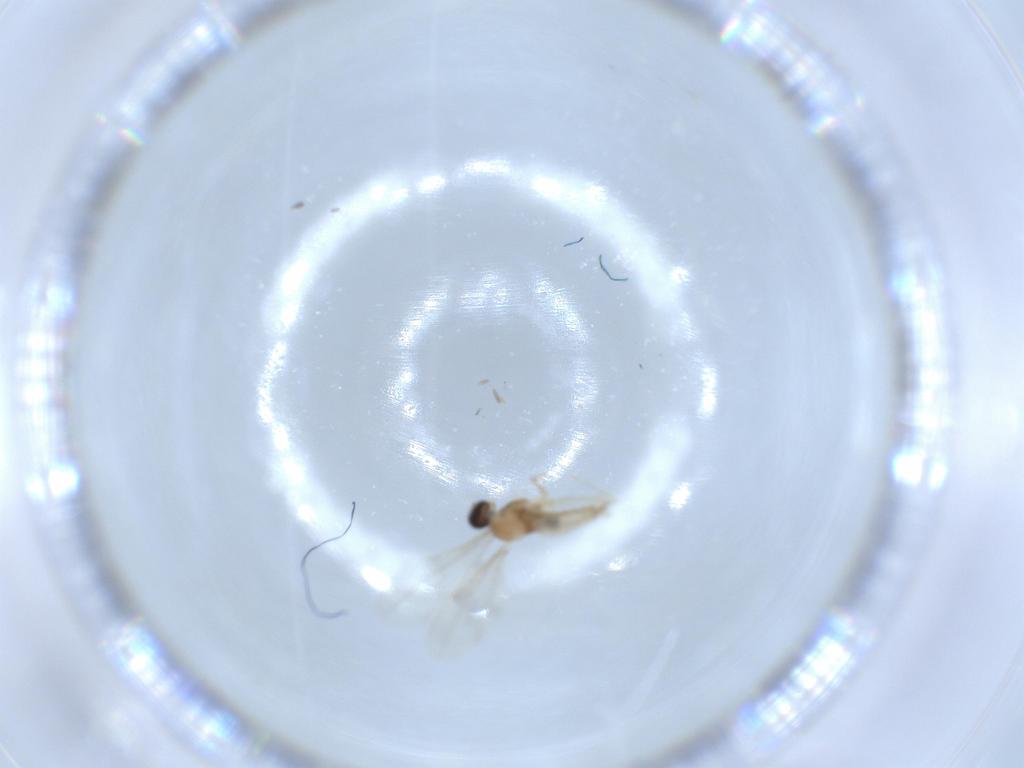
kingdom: Animalia
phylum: Arthropoda
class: Insecta
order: Diptera
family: Cecidomyiidae
